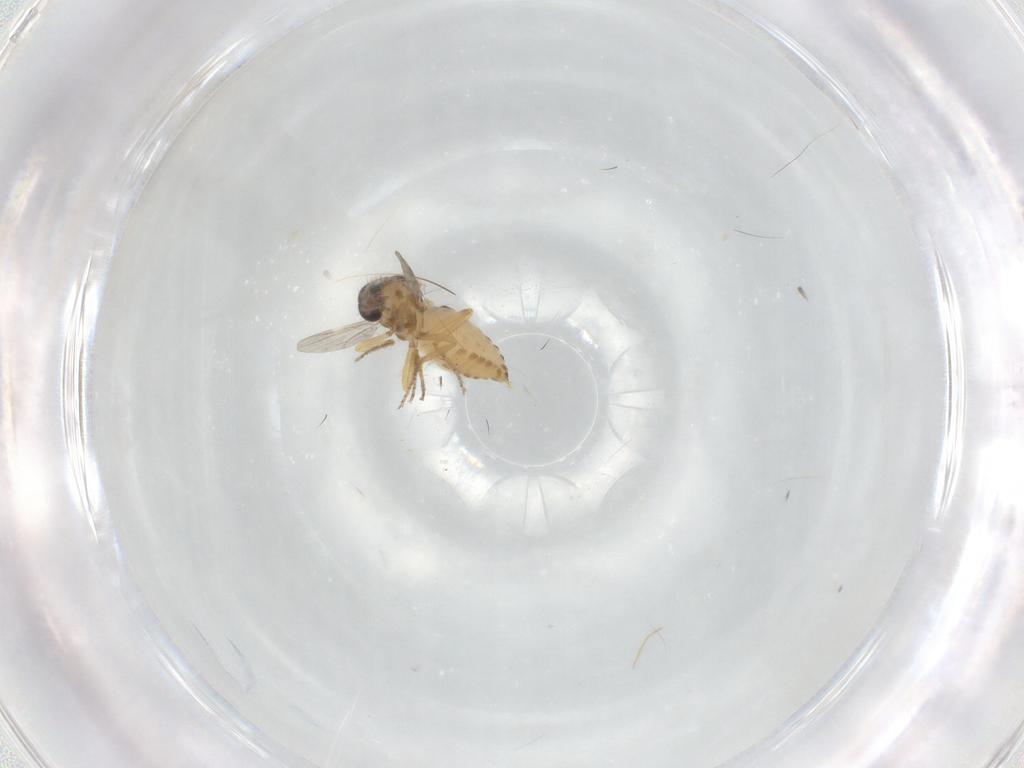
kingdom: Animalia
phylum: Arthropoda
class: Insecta
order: Diptera
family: Ceratopogonidae
